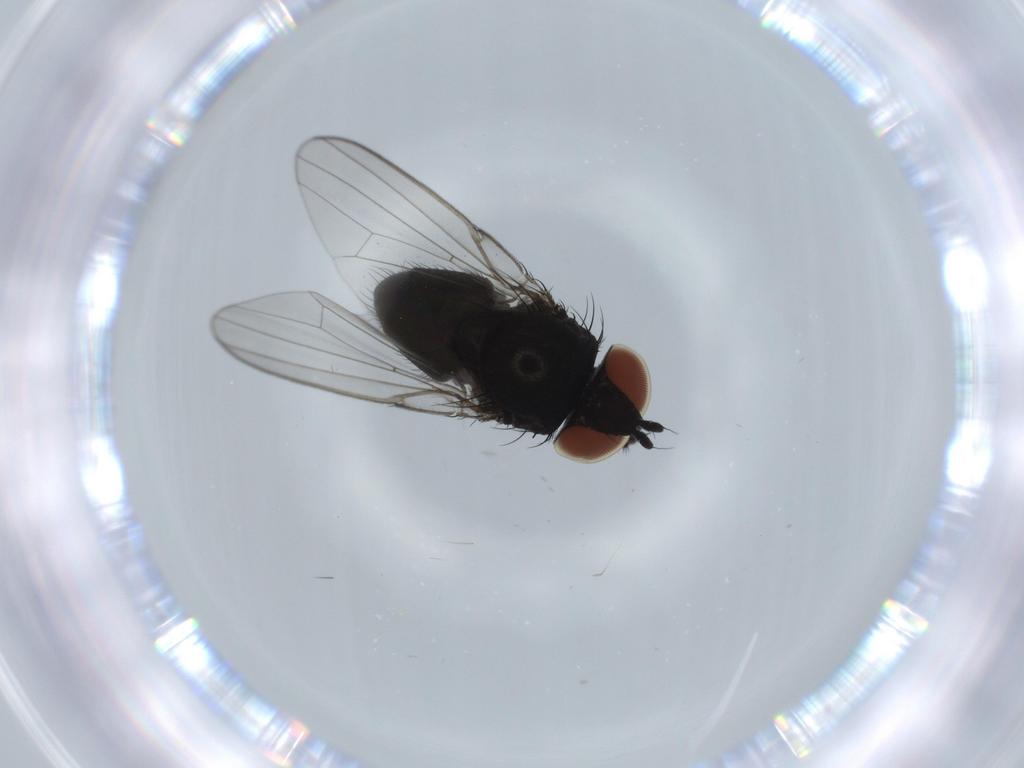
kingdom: Animalia
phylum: Arthropoda
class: Insecta
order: Diptera
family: Milichiidae
